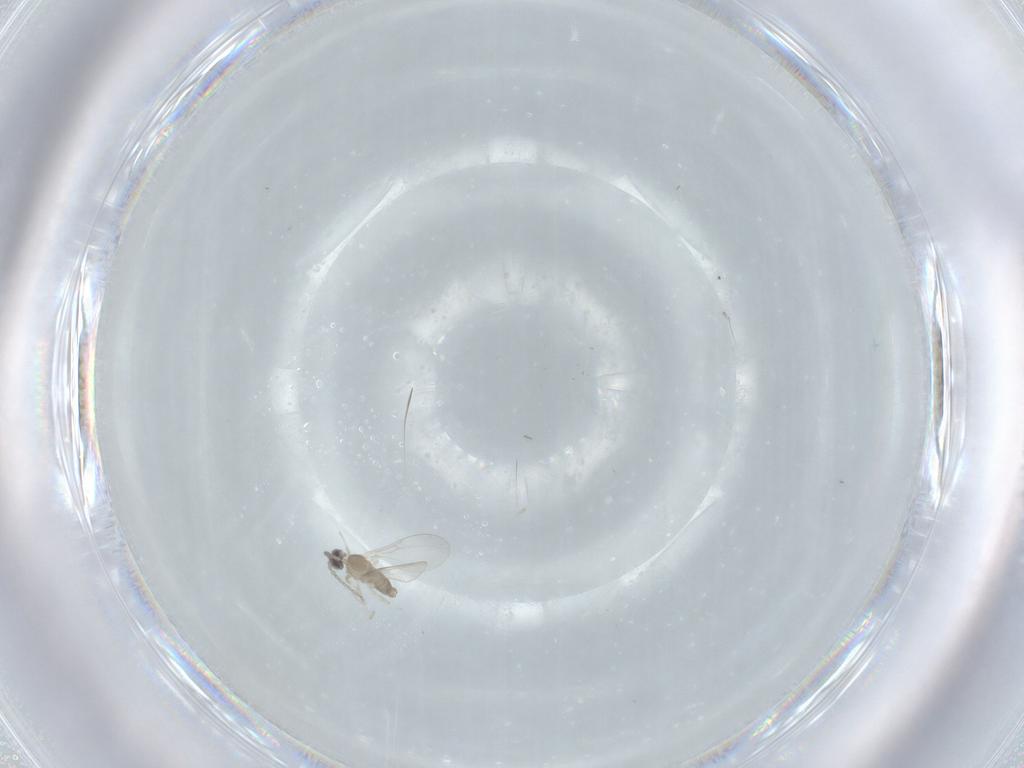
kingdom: Animalia
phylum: Arthropoda
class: Insecta
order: Diptera
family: Cecidomyiidae
